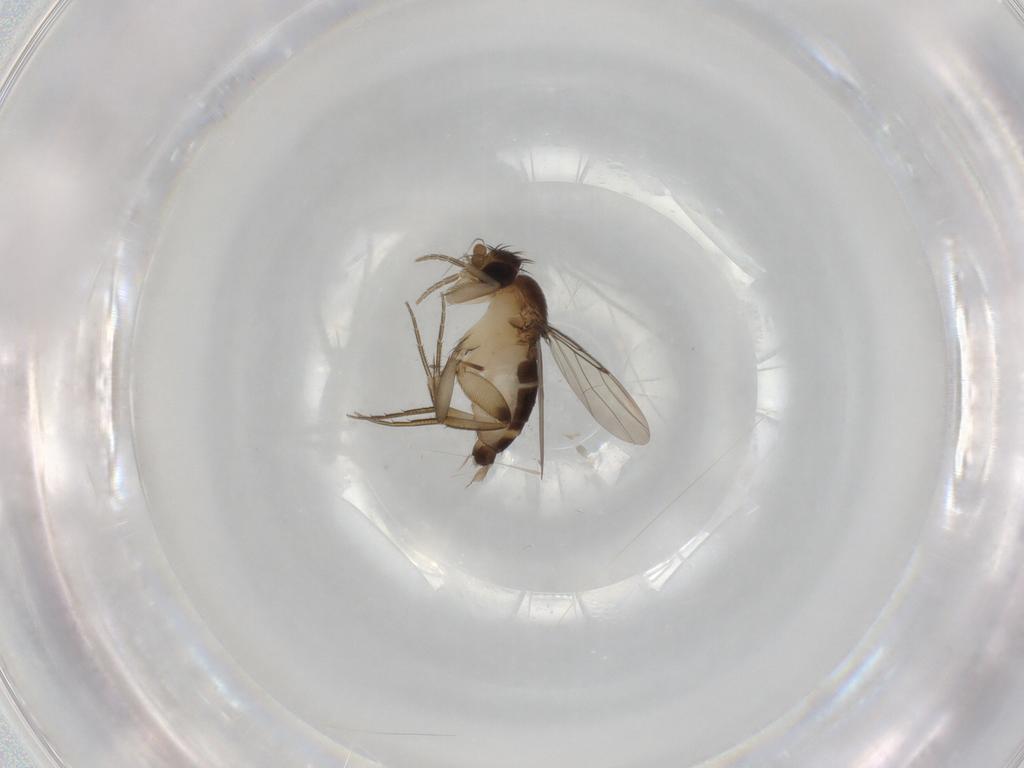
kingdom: Animalia
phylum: Arthropoda
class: Insecta
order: Diptera
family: Phoridae
